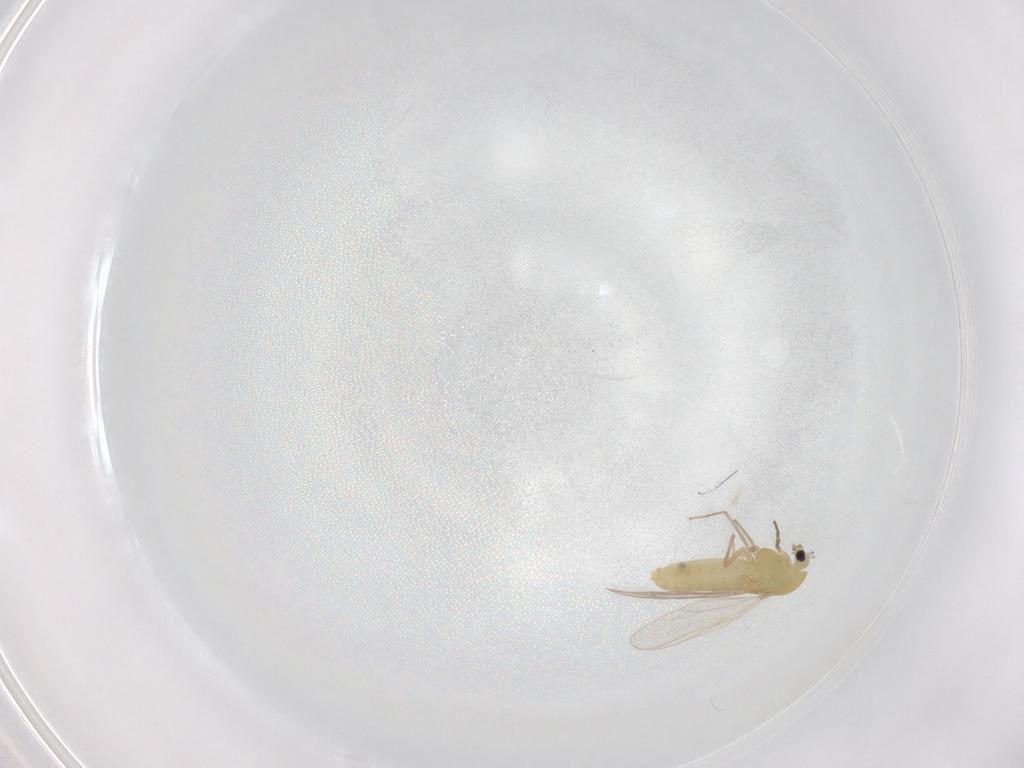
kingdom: Animalia
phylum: Arthropoda
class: Insecta
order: Diptera
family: Chironomidae
